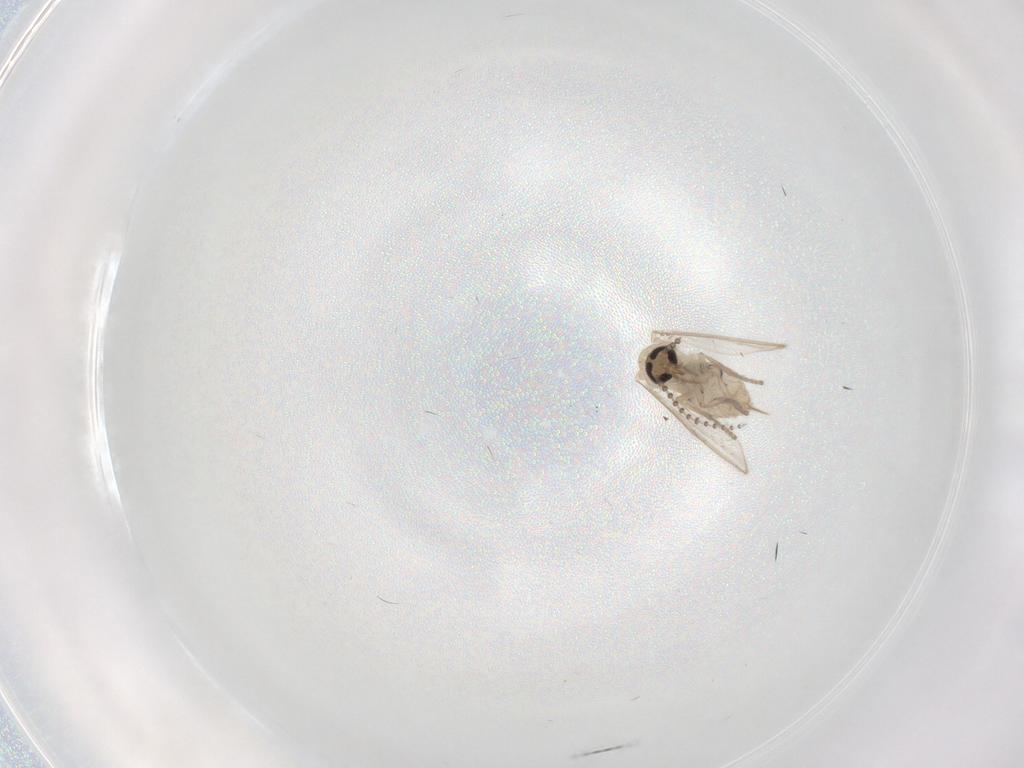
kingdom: Animalia
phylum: Arthropoda
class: Insecta
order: Diptera
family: Psychodidae
